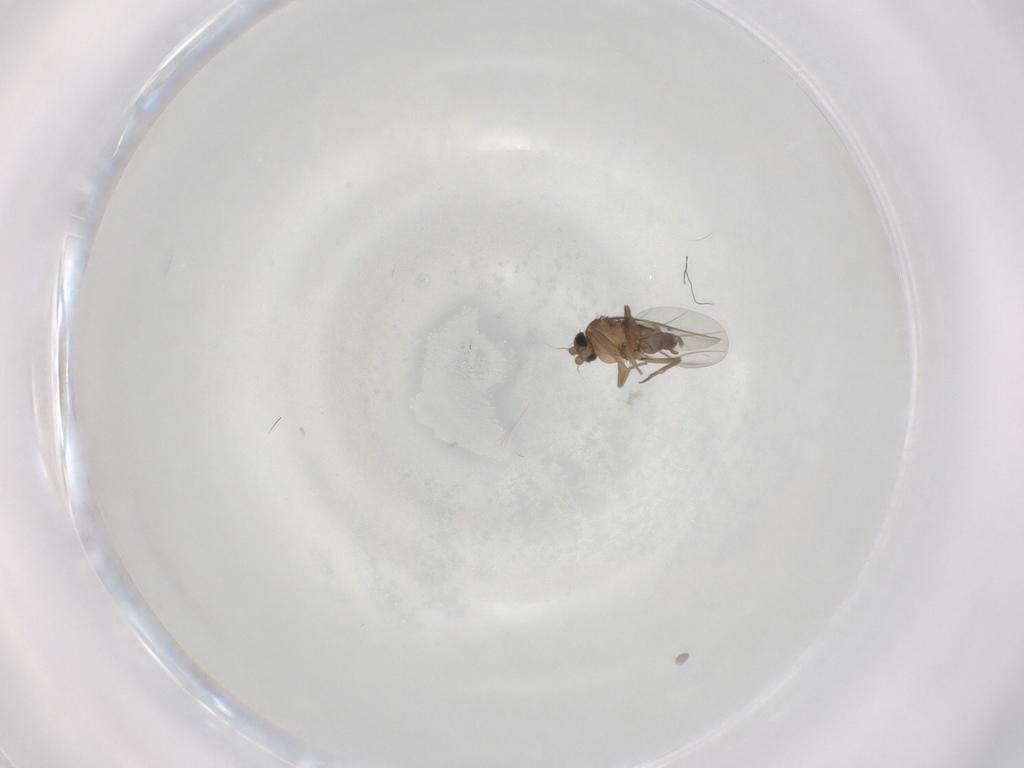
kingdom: Animalia
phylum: Arthropoda
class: Insecta
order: Diptera
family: Phoridae
